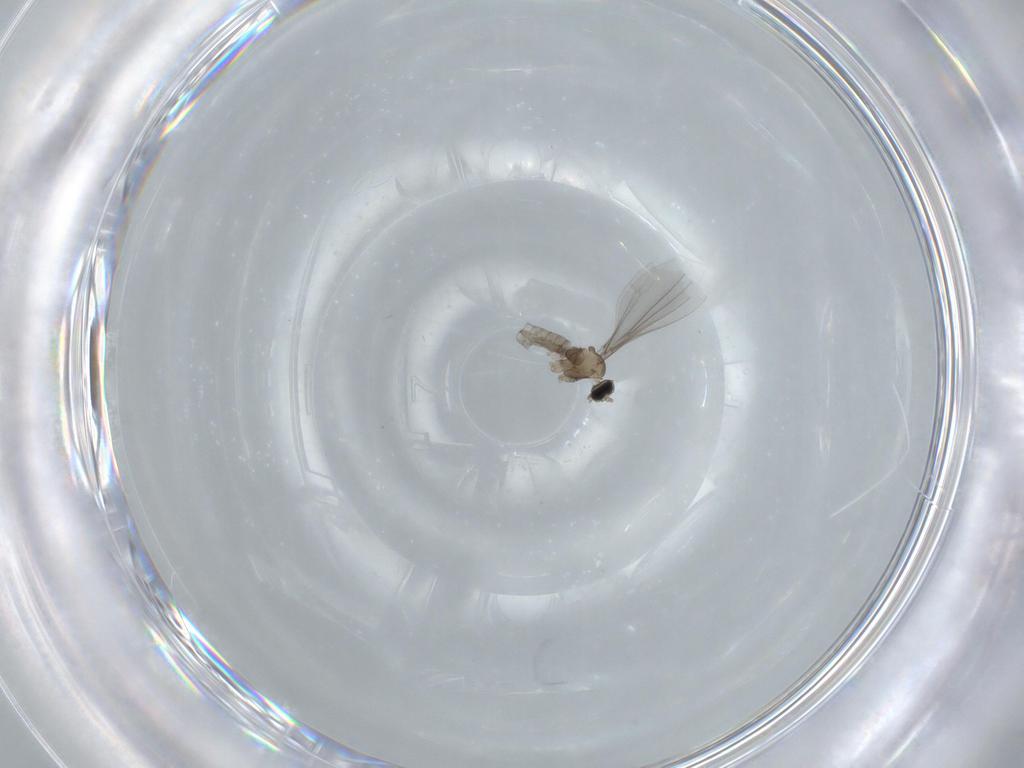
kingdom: Animalia
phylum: Arthropoda
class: Insecta
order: Diptera
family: Cecidomyiidae
